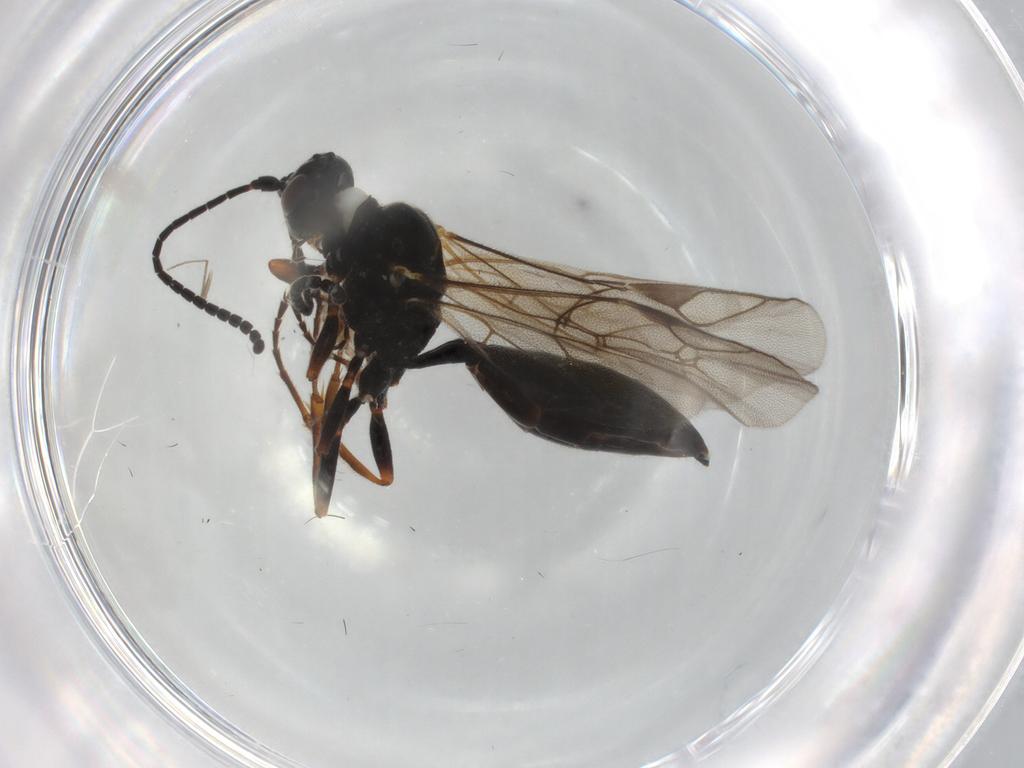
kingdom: Animalia
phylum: Arthropoda
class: Insecta
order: Hymenoptera
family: Ichneumonidae
